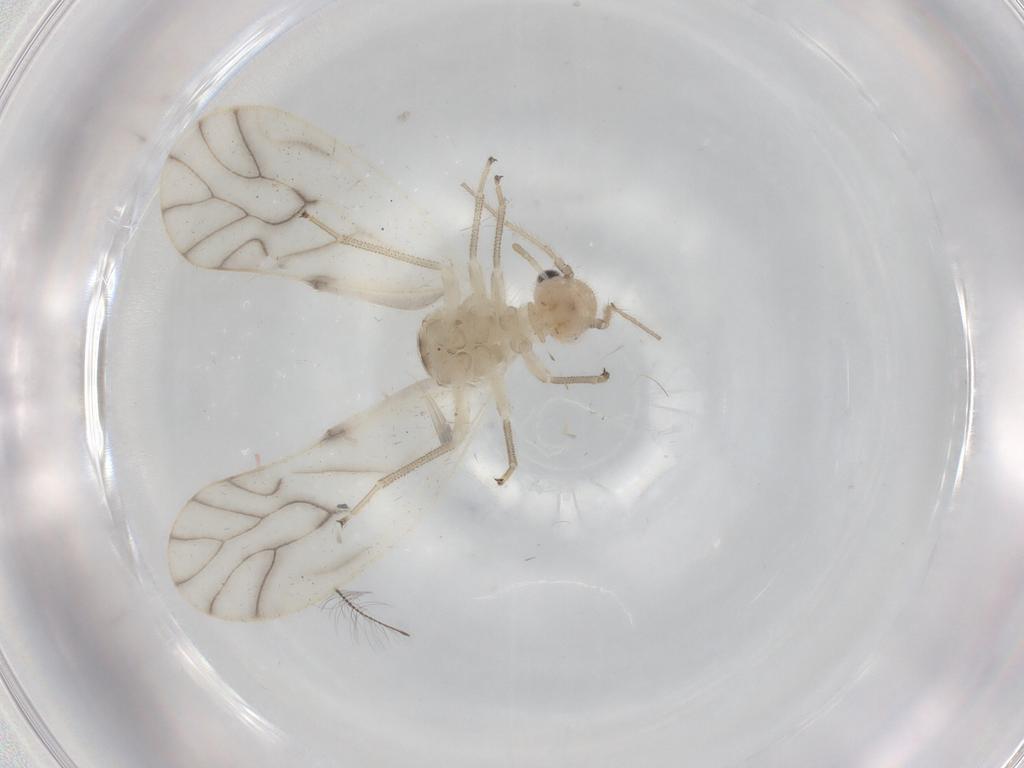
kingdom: Animalia
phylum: Arthropoda
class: Insecta
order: Psocodea
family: Caeciliusidae
